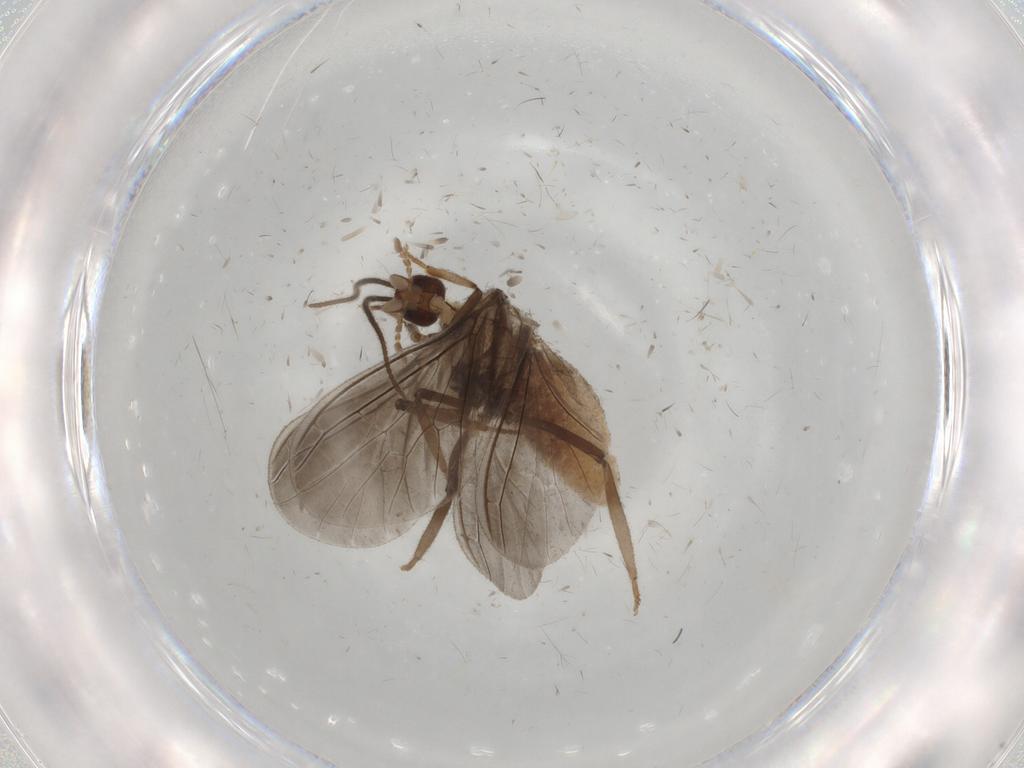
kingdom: Animalia
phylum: Arthropoda
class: Insecta
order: Neuroptera
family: Coniopterygidae
